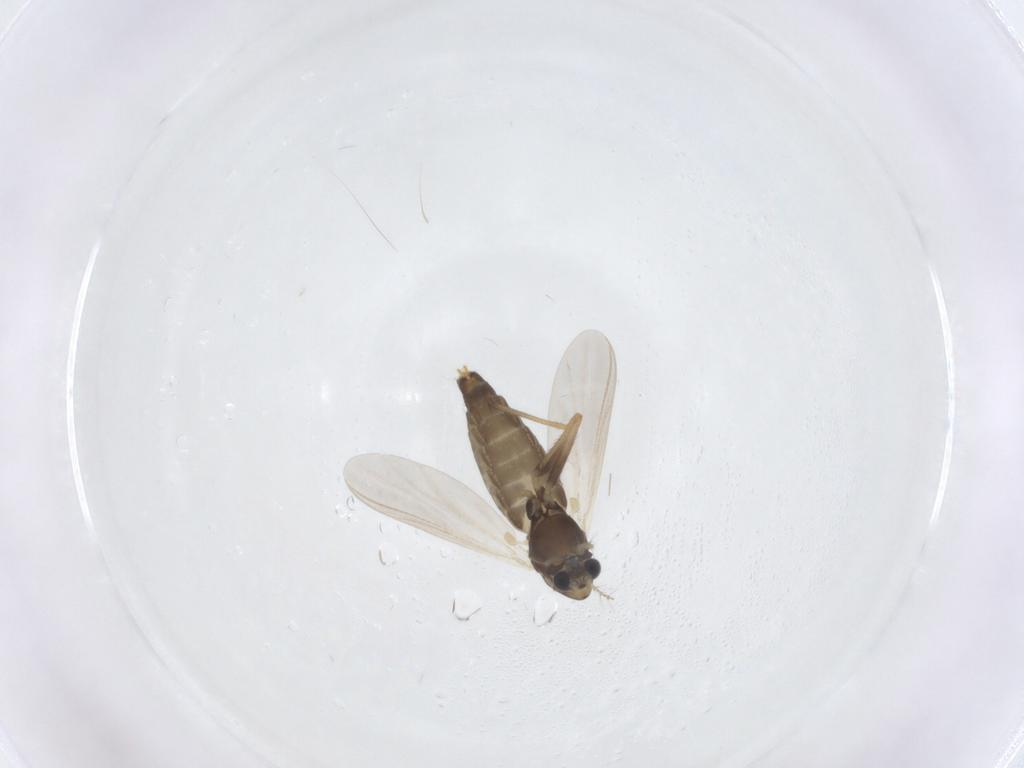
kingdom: Animalia
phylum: Arthropoda
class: Insecta
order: Diptera
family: Chironomidae
